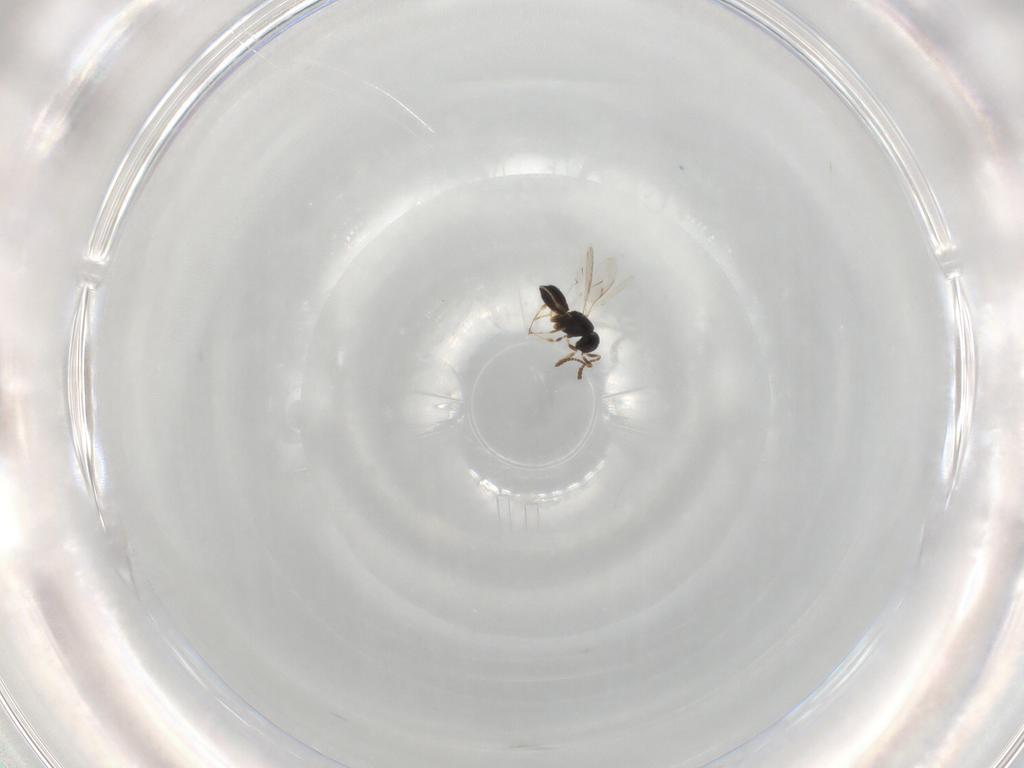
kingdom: Animalia
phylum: Arthropoda
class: Insecta
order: Hymenoptera
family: Scelionidae
